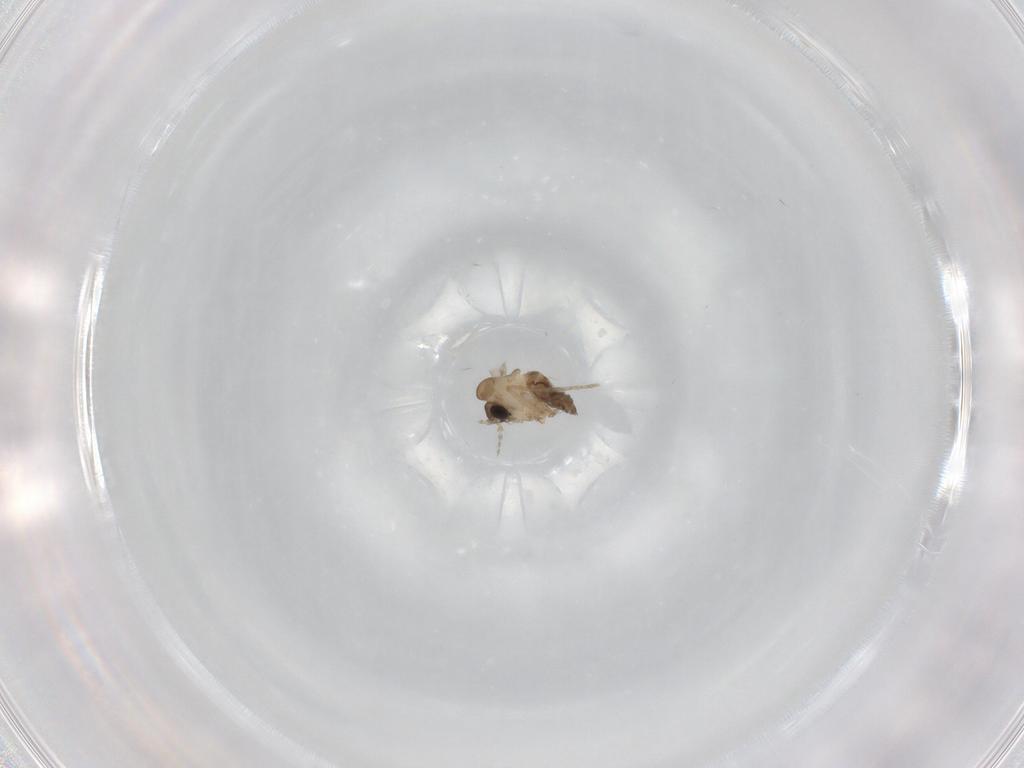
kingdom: Animalia
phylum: Arthropoda
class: Insecta
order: Diptera
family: Psychodidae
